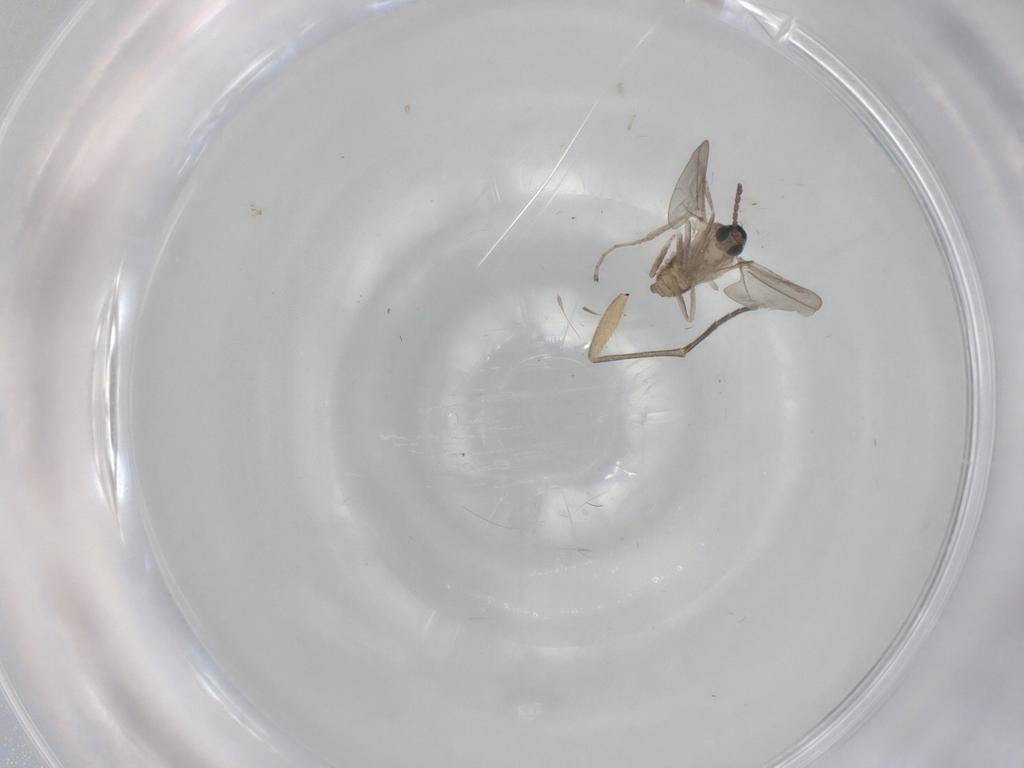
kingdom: Animalia
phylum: Arthropoda
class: Insecta
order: Diptera
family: Sciaridae
